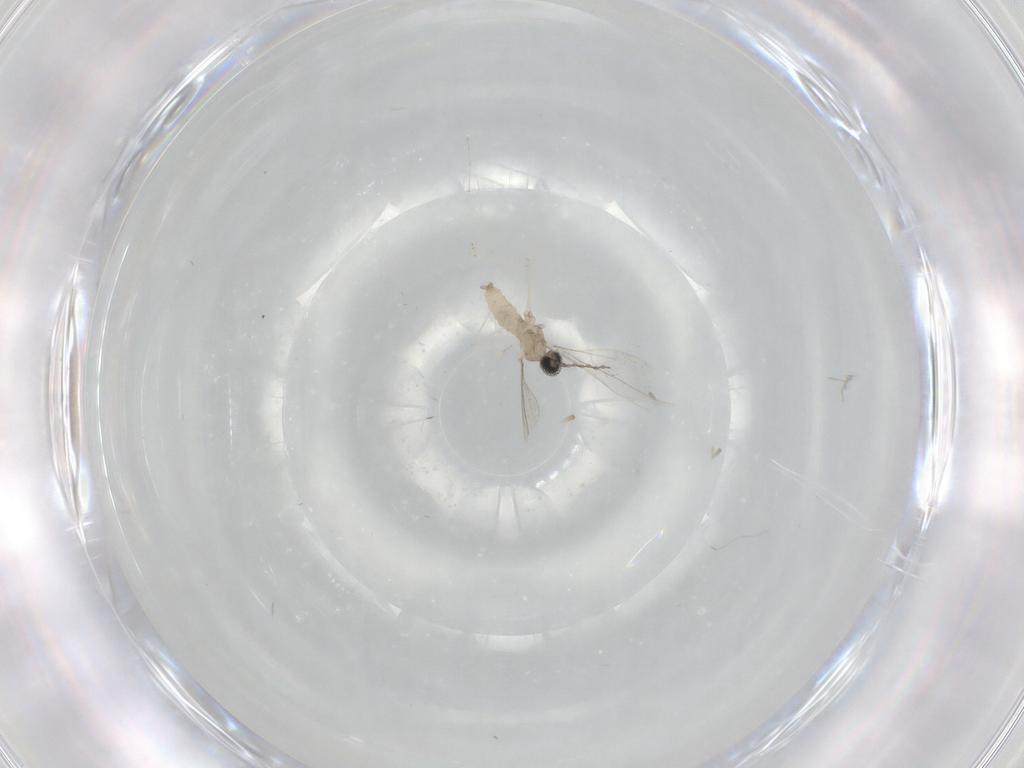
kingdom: Animalia
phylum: Arthropoda
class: Insecta
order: Diptera
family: Cecidomyiidae
